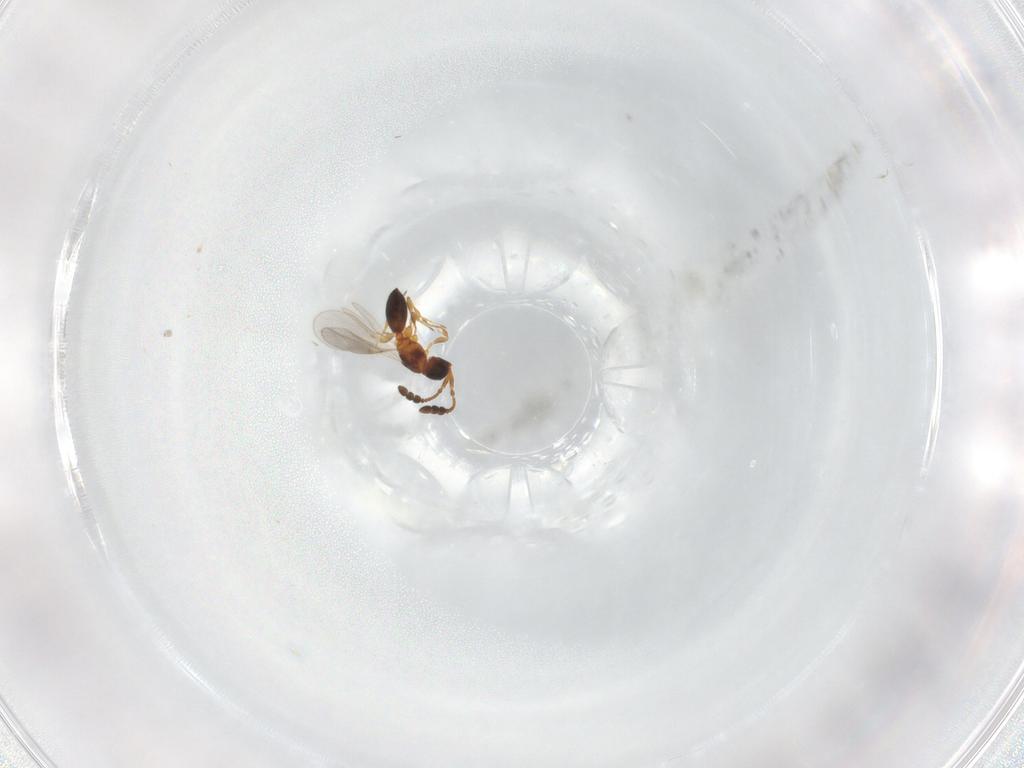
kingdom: Animalia
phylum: Arthropoda
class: Insecta
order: Hymenoptera
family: Diapriidae
